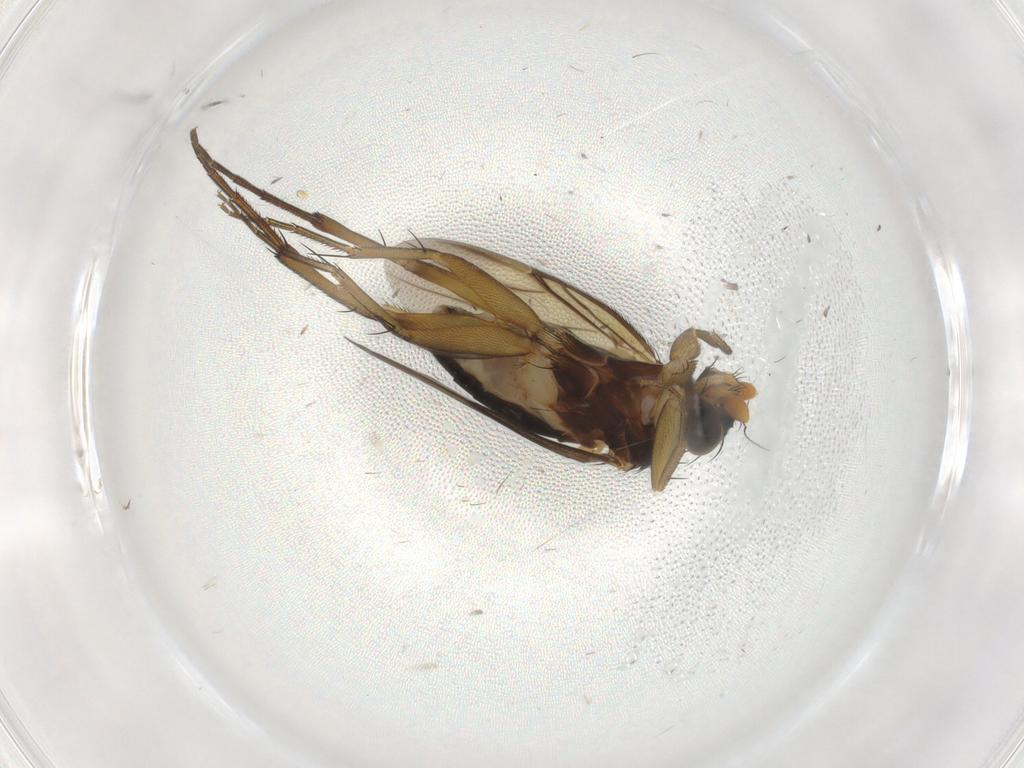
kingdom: Animalia
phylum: Arthropoda
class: Insecta
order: Diptera
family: Phoridae
